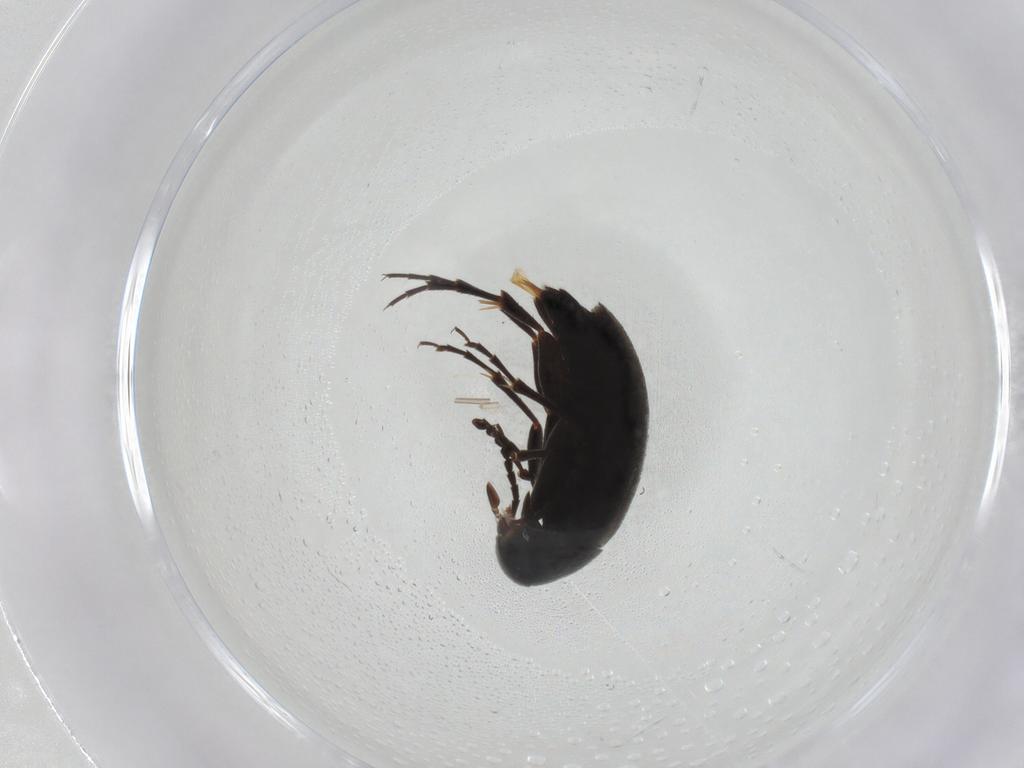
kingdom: Animalia
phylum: Arthropoda
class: Insecta
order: Coleoptera
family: Scraptiidae
